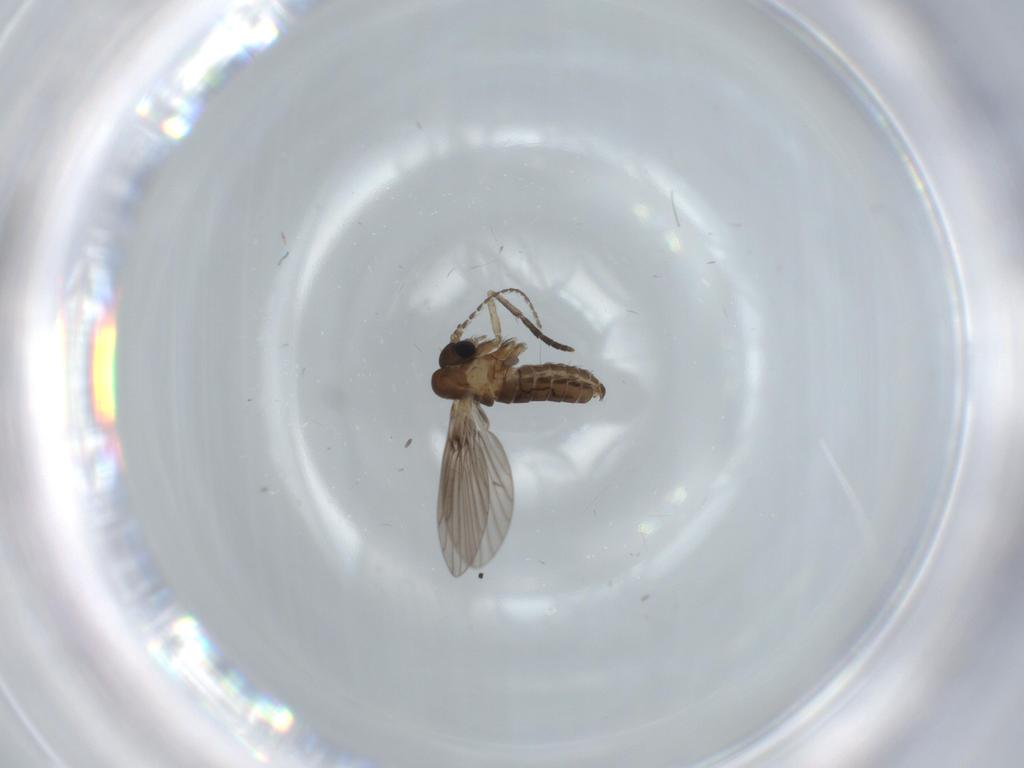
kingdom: Animalia
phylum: Arthropoda
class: Insecta
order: Diptera
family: Psychodidae
